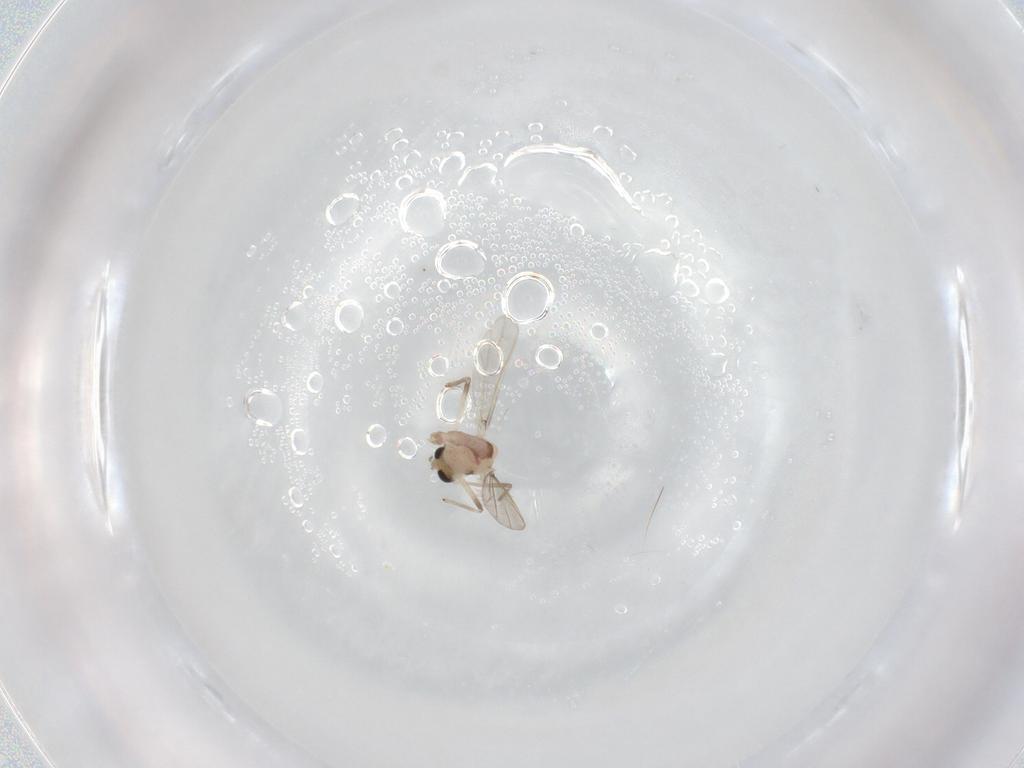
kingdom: Animalia
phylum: Arthropoda
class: Insecta
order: Diptera
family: Chironomidae
